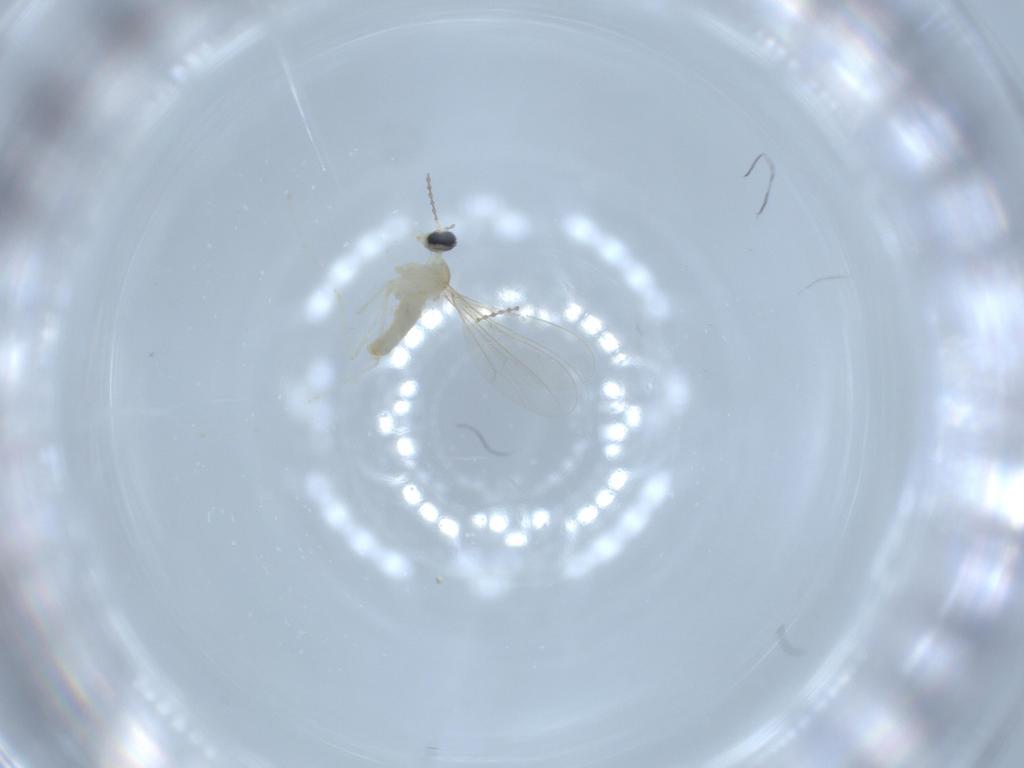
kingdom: Animalia
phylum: Arthropoda
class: Insecta
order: Diptera
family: Cecidomyiidae
